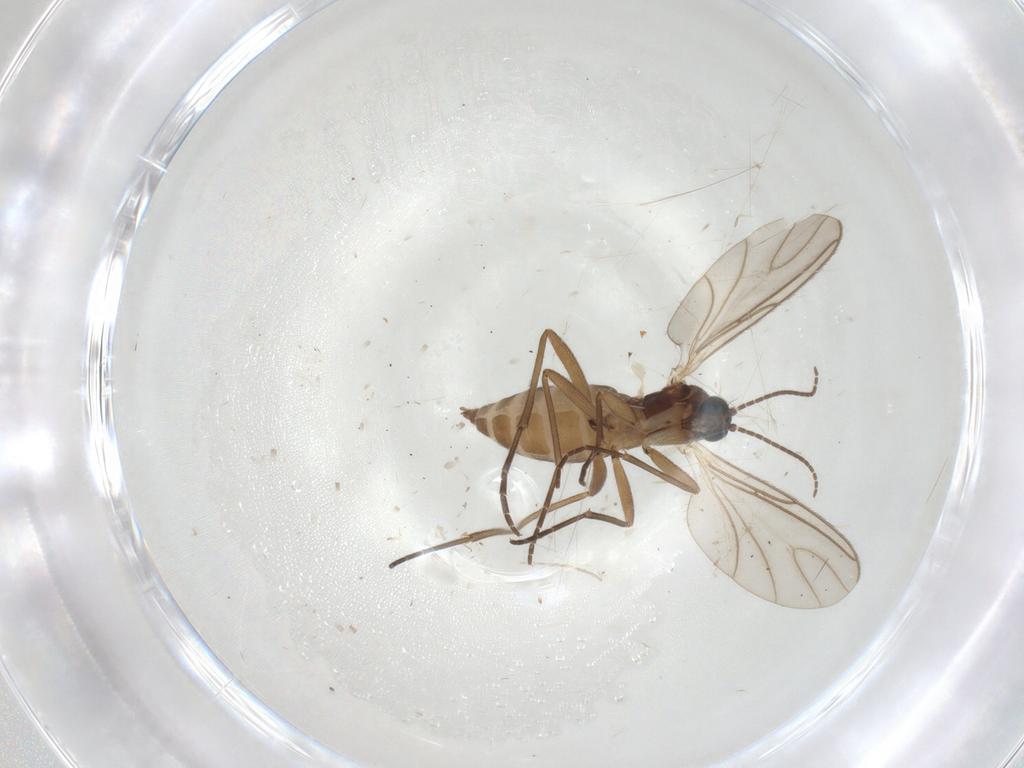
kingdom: Animalia
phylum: Arthropoda
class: Insecta
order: Diptera
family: Sciaridae
